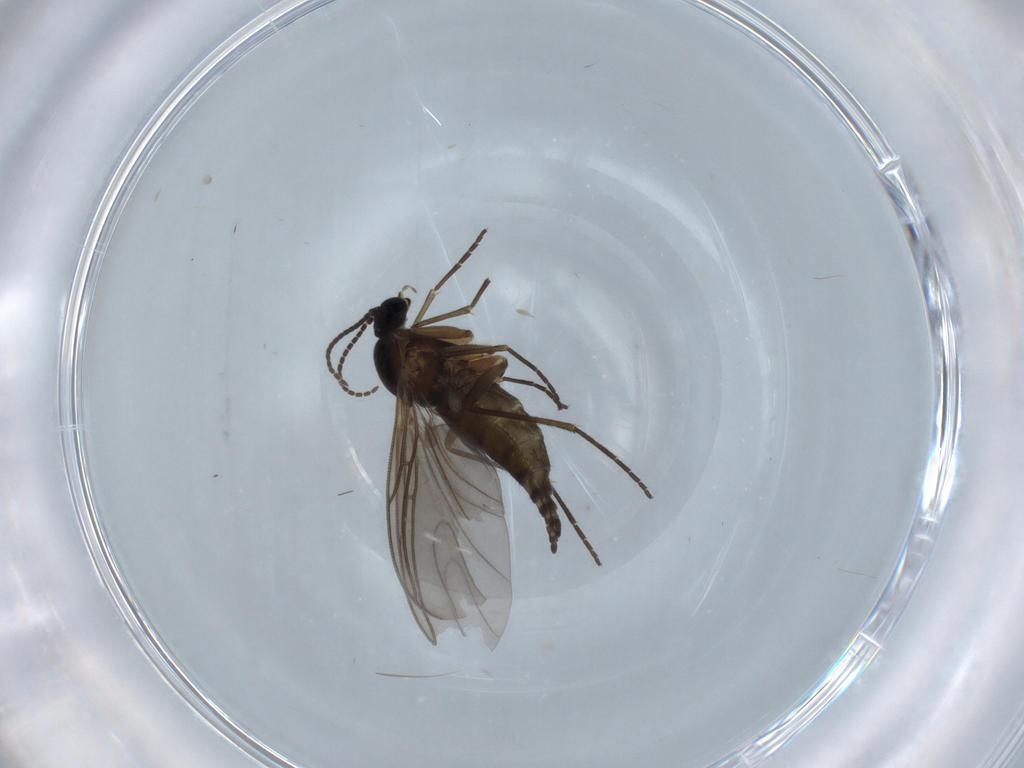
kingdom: Animalia
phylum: Arthropoda
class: Insecta
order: Diptera
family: Sciaridae
